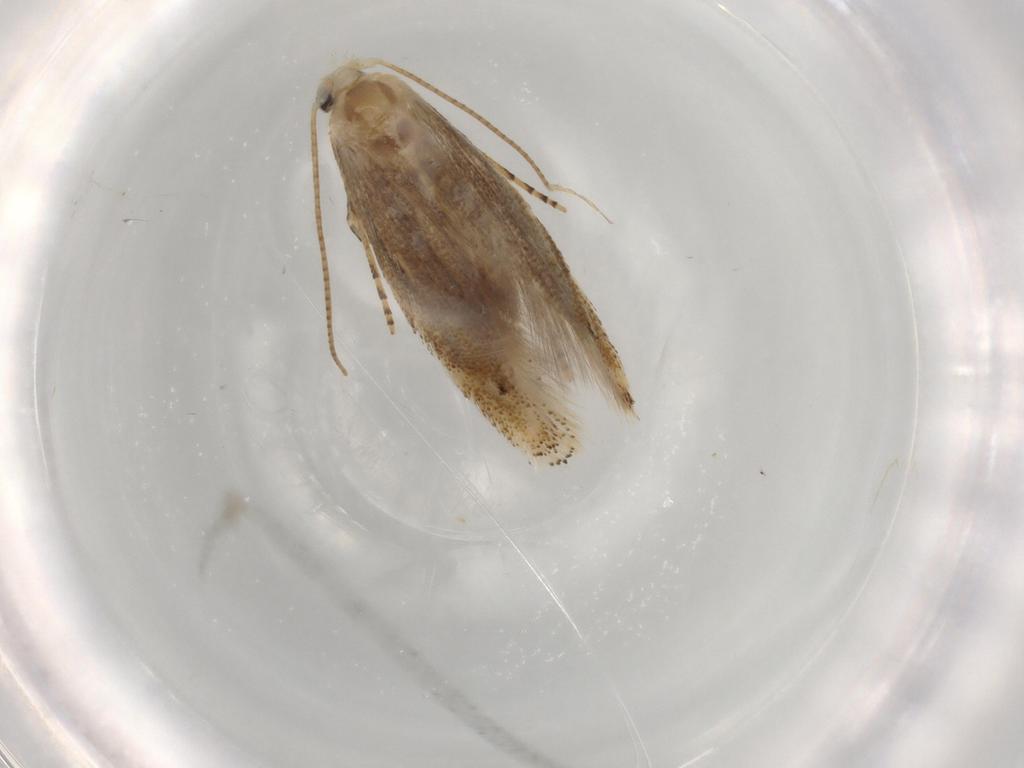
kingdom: Animalia
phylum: Arthropoda
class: Insecta
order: Lepidoptera
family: Bucculatricidae
